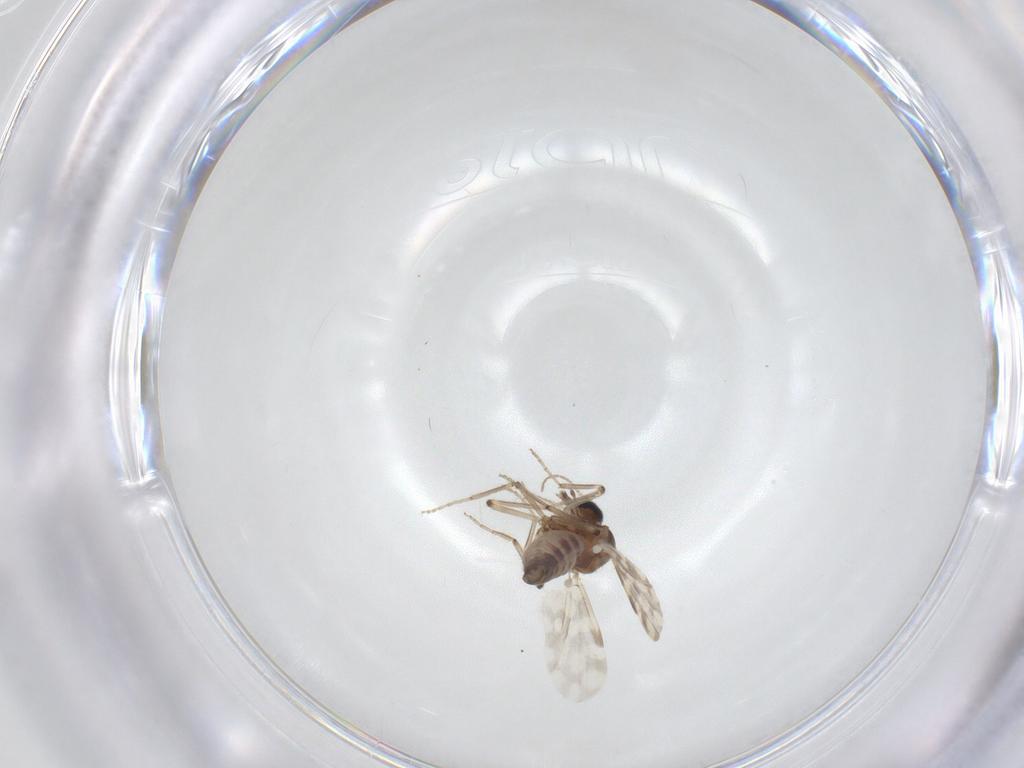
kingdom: Animalia
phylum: Arthropoda
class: Insecta
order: Diptera
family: Ceratopogonidae
